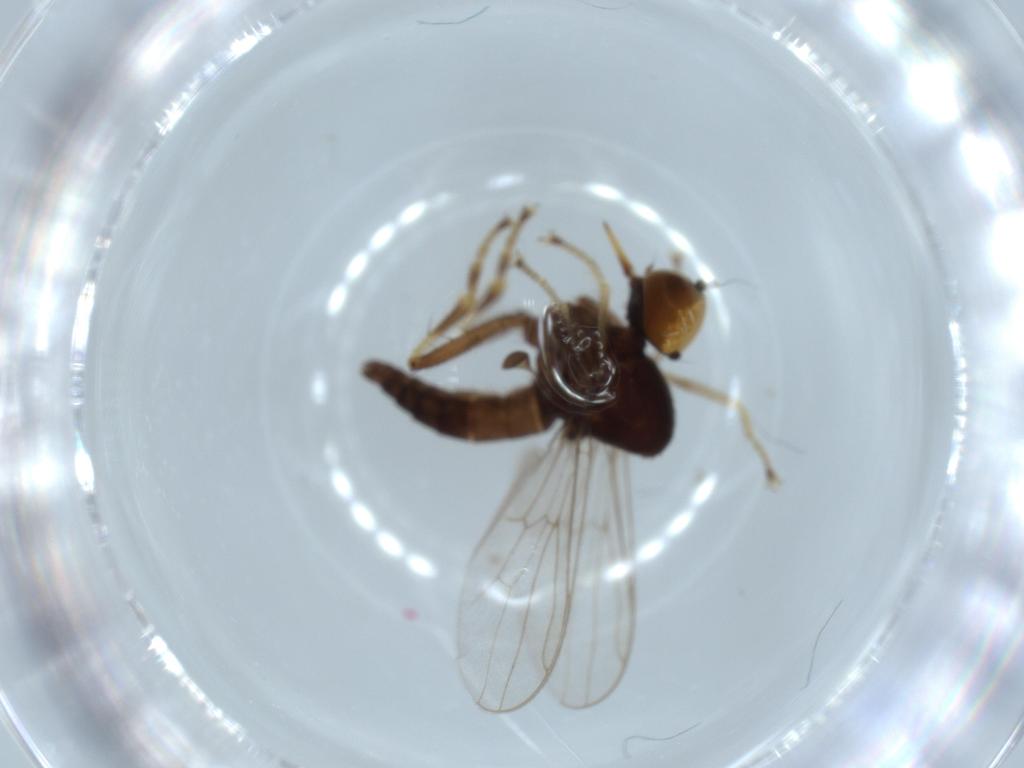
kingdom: Animalia
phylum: Arthropoda
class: Insecta
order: Diptera
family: Hybotidae
